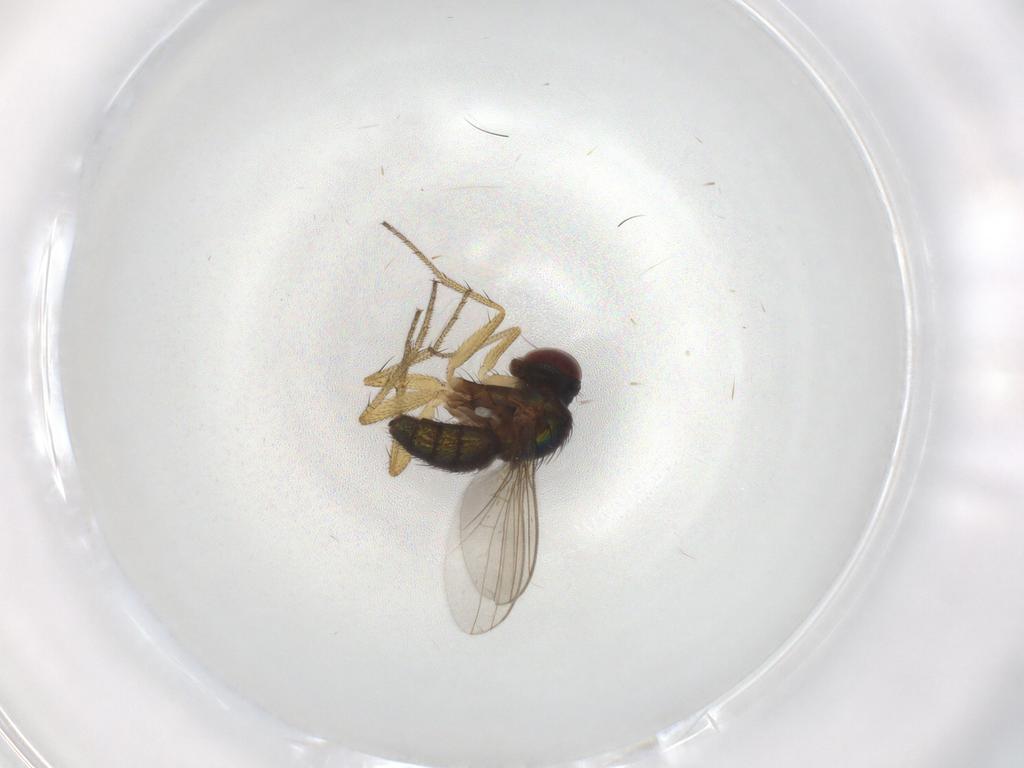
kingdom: Animalia
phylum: Arthropoda
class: Insecta
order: Diptera
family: Dolichopodidae
